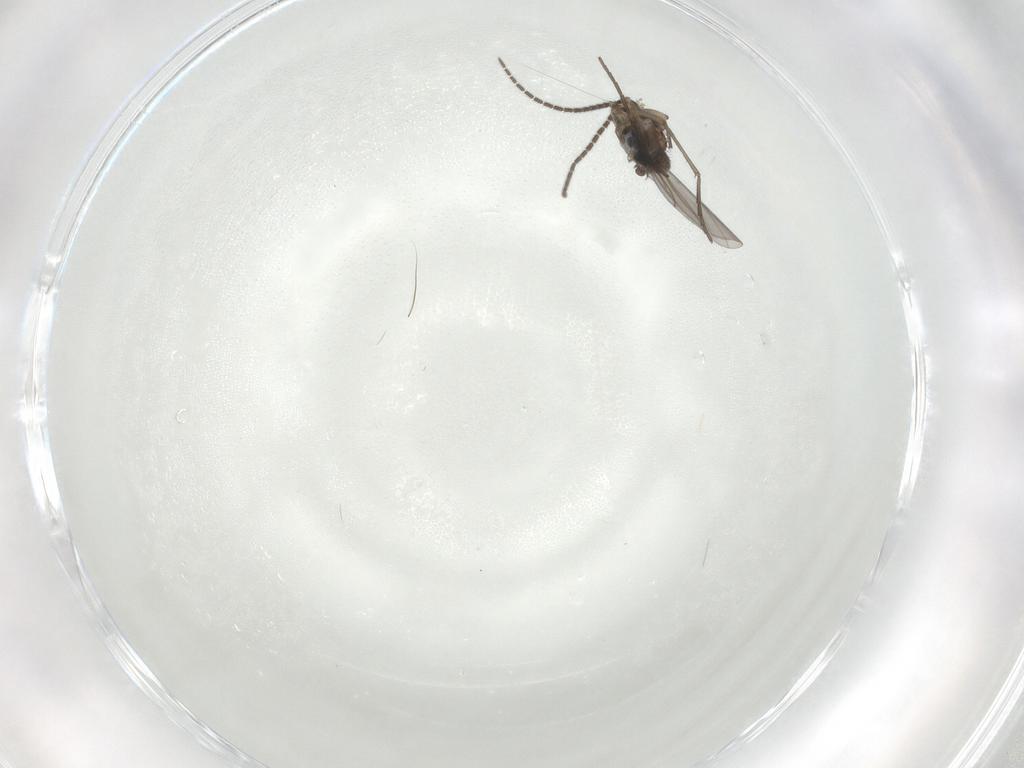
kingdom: Animalia
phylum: Arthropoda
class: Insecta
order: Diptera
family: Sciaridae
